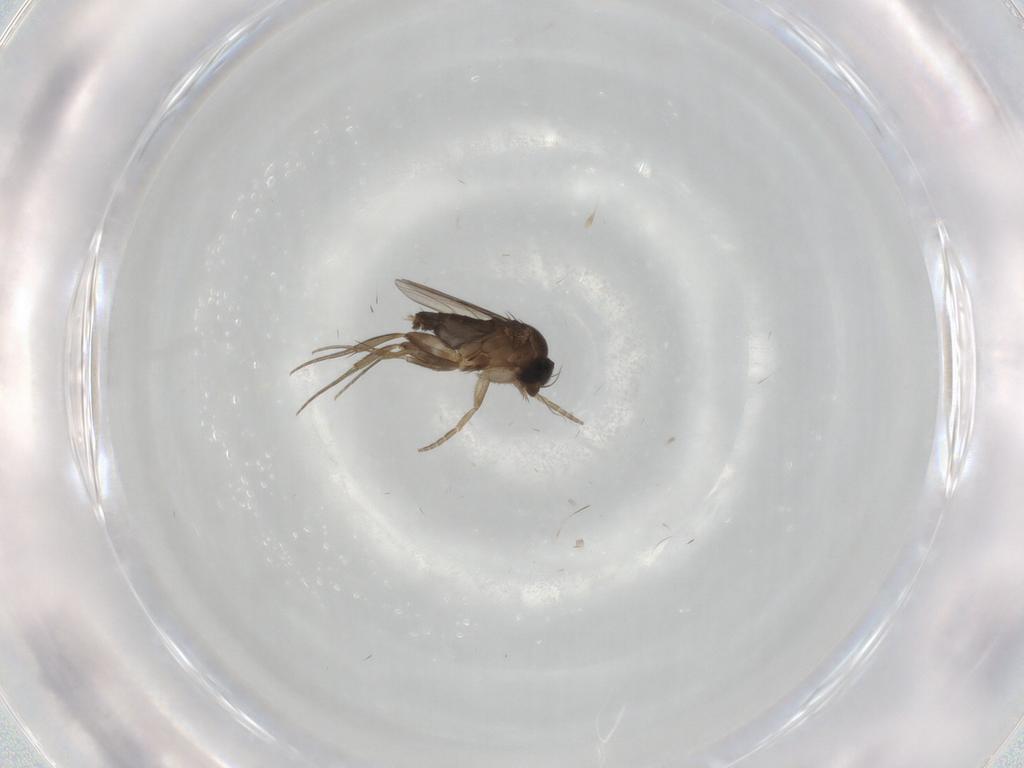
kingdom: Animalia
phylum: Arthropoda
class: Insecta
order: Diptera
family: Phoridae
